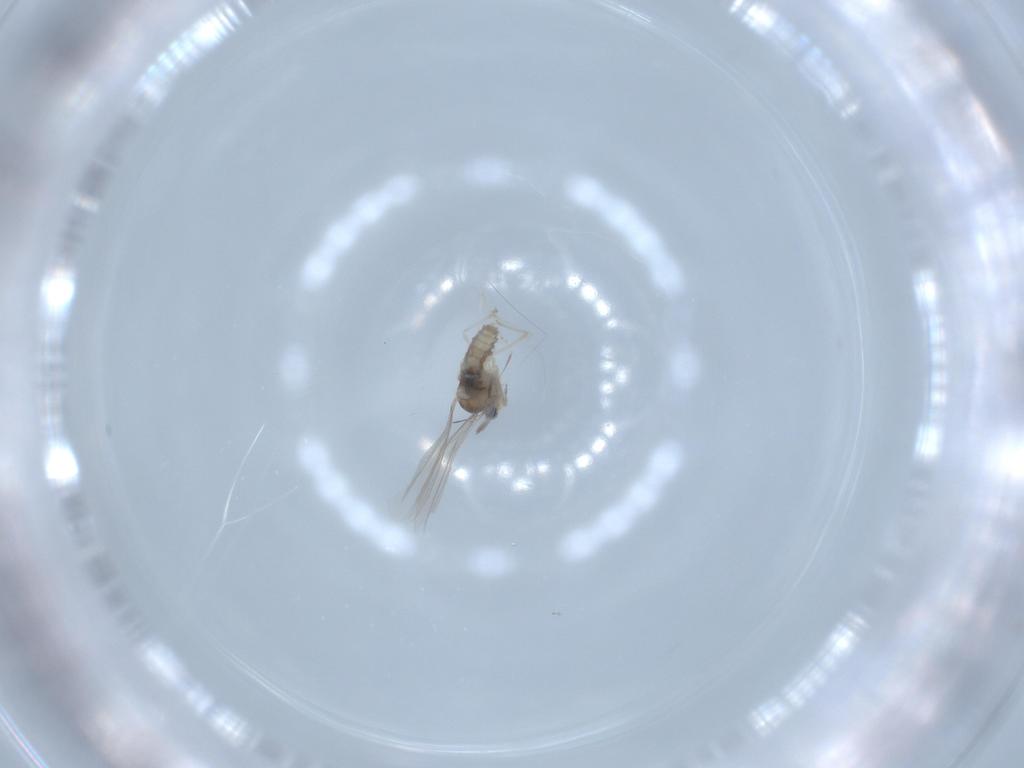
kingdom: Animalia
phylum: Arthropoda
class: Insecta
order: Diptera
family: Cecidomyiidae
